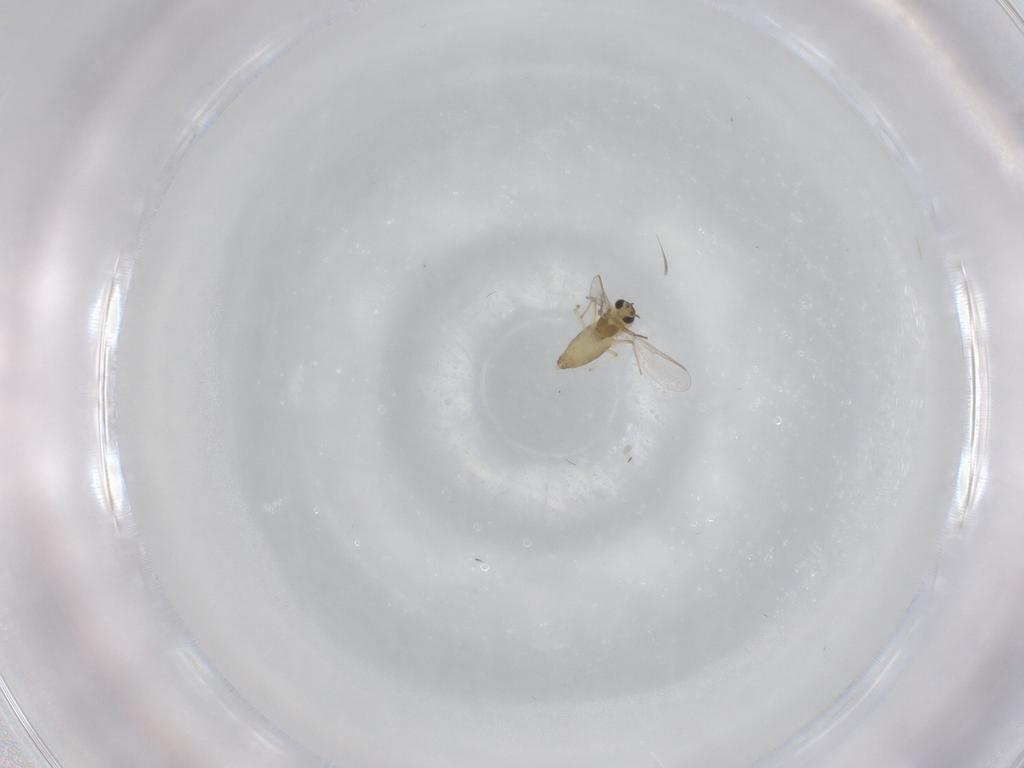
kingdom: Animalia
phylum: Arthropoda
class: Insecta
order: Diptera
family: Chironomidae
